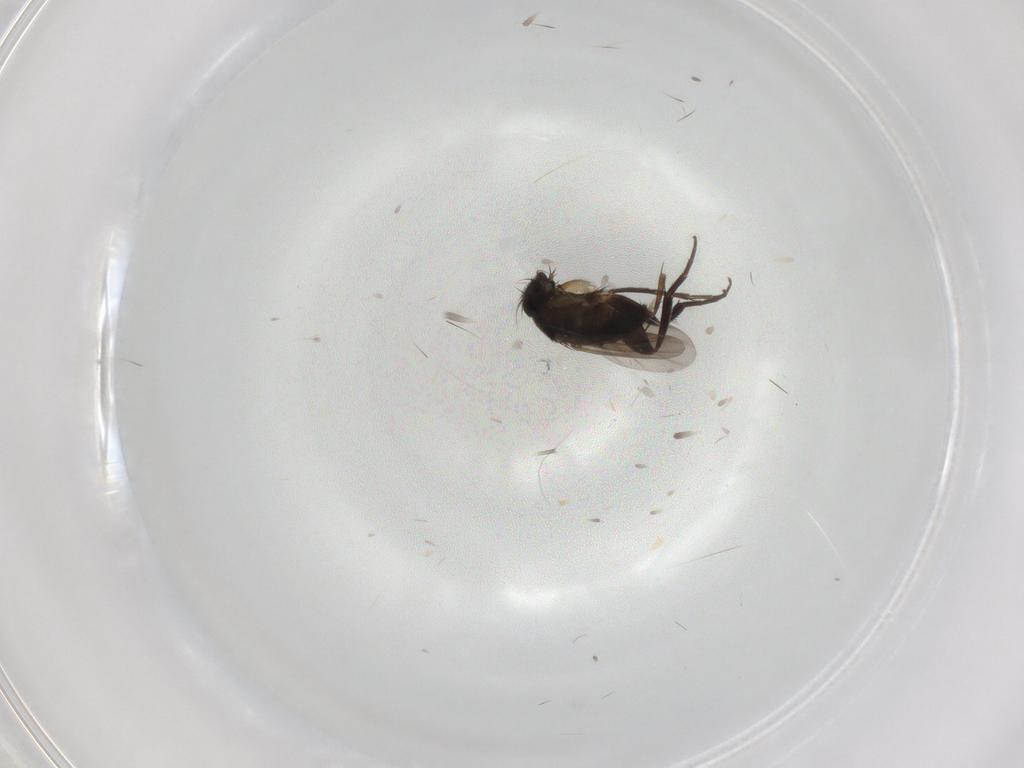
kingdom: Animalia
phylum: Arthropoda
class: Insecta
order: Diptera
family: Phoridae
